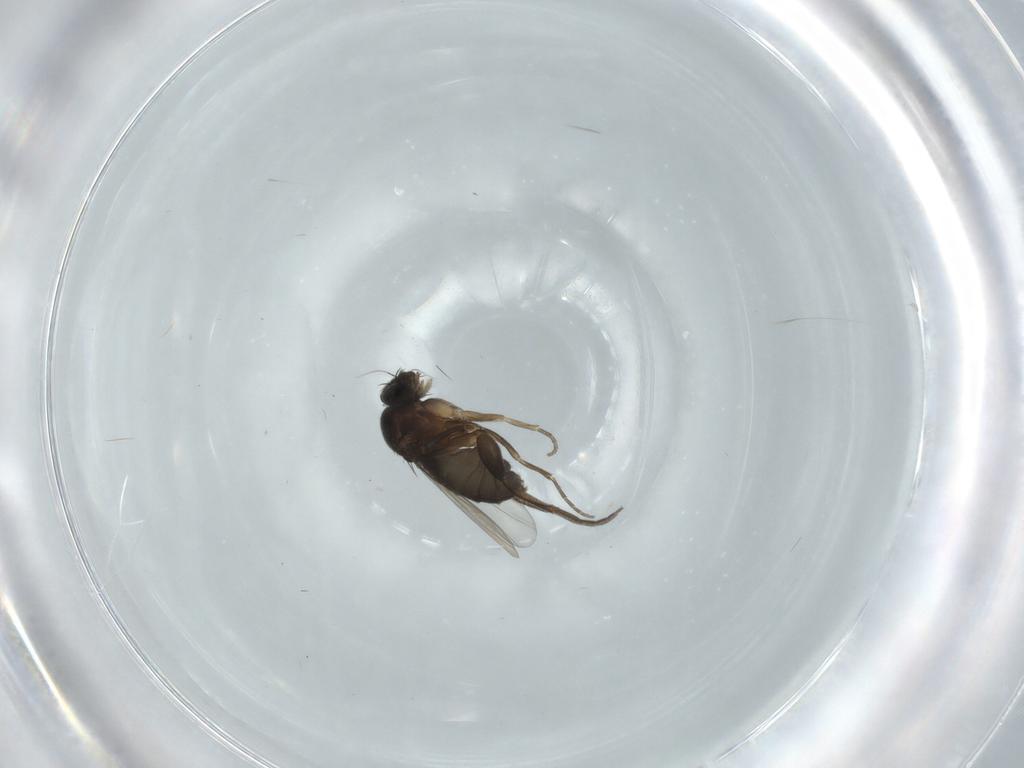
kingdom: Animalia
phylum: Arthropoda
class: Insecta
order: Diptera
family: Phoridae
